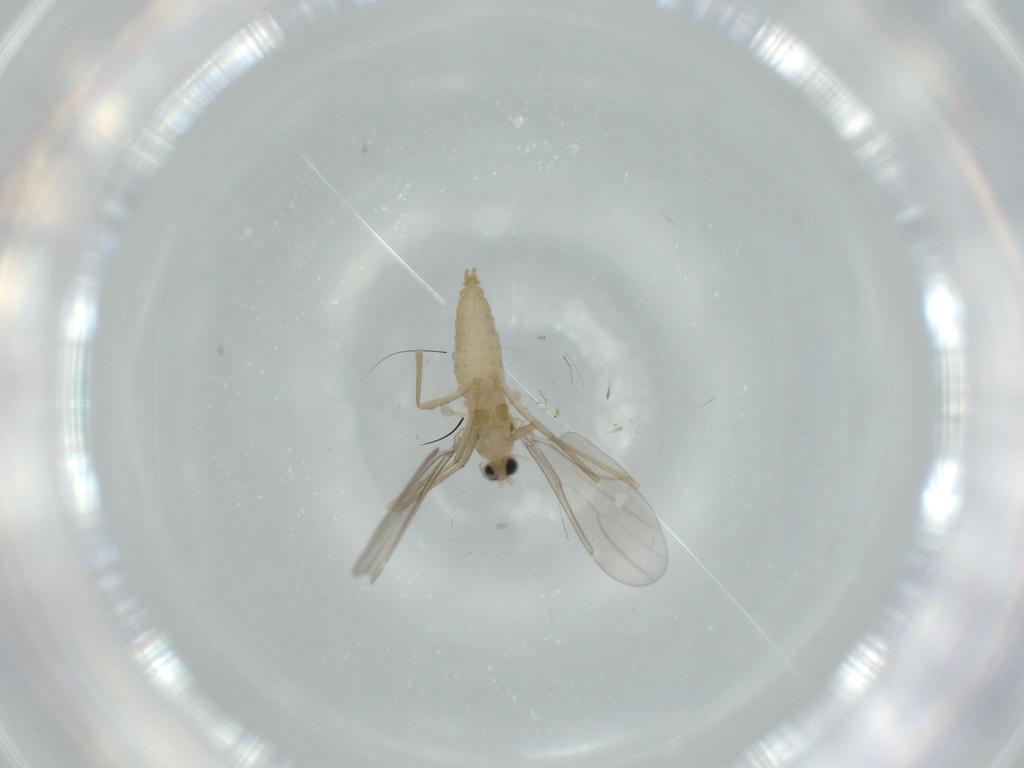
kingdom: Animalia
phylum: Arthropoda
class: Insecta
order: Diptera
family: Cecidomyiidae
